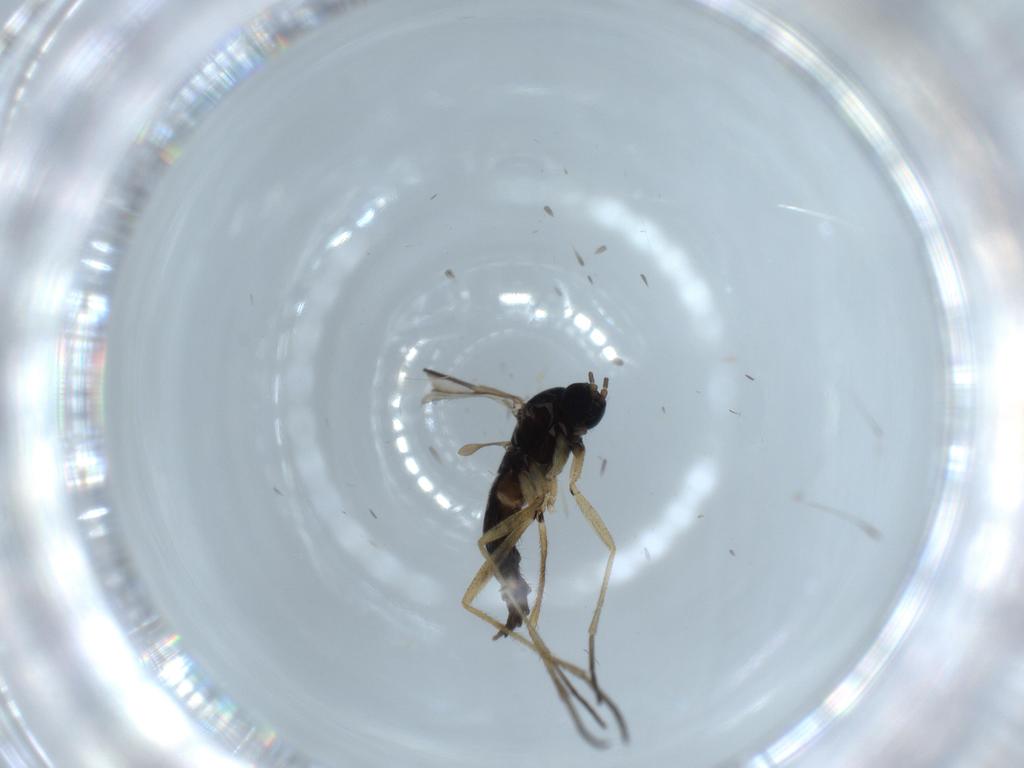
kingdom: Animalia
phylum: Arthropoda
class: Insecta
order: Diptera
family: Sciaridae
